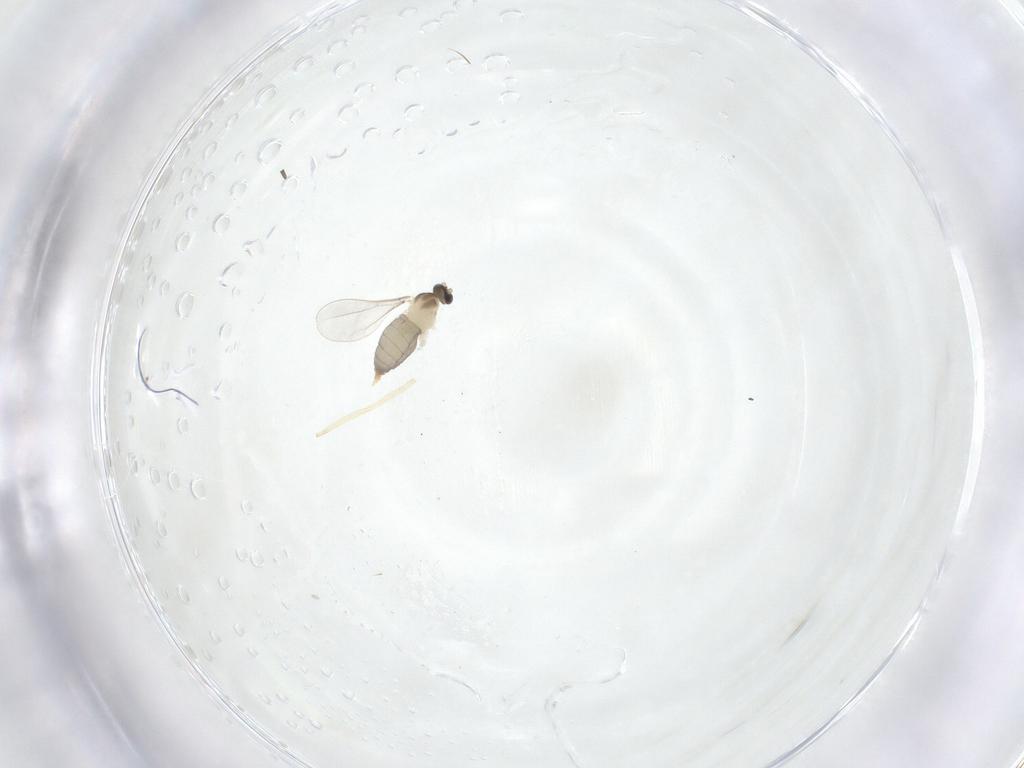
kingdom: Animalia
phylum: Arthropoda
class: Insecta
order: Diptera
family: Cecidomyiidae
